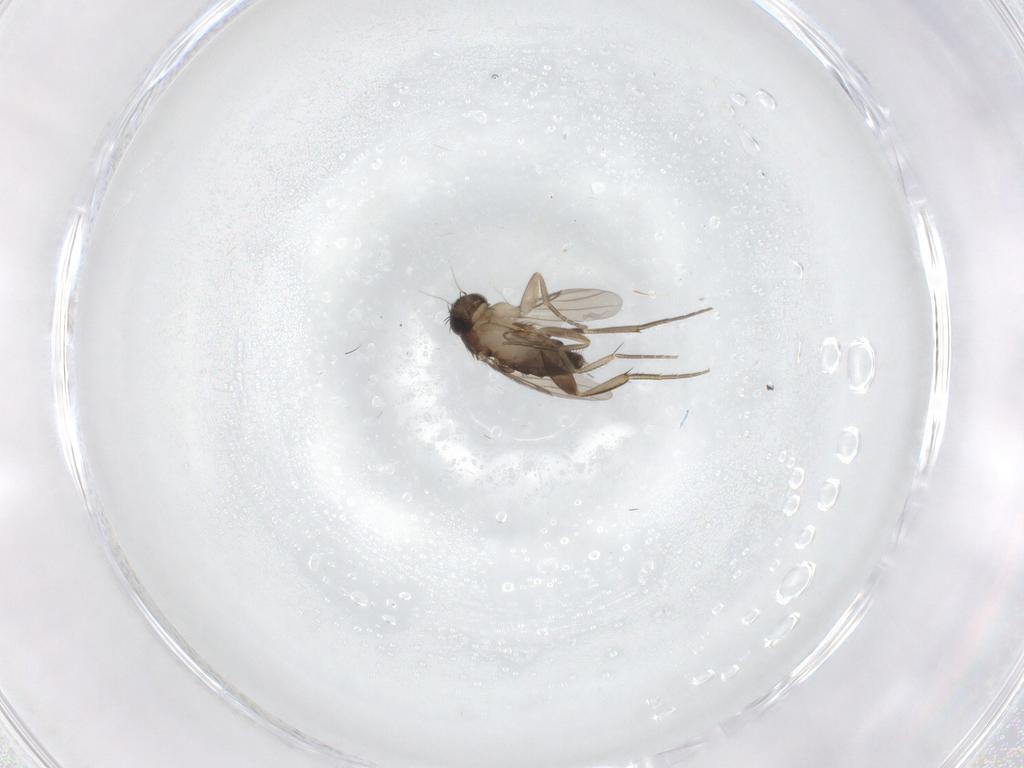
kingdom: Animalia
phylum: Arthropoda
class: Insecta
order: Diptera
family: Phoridae
